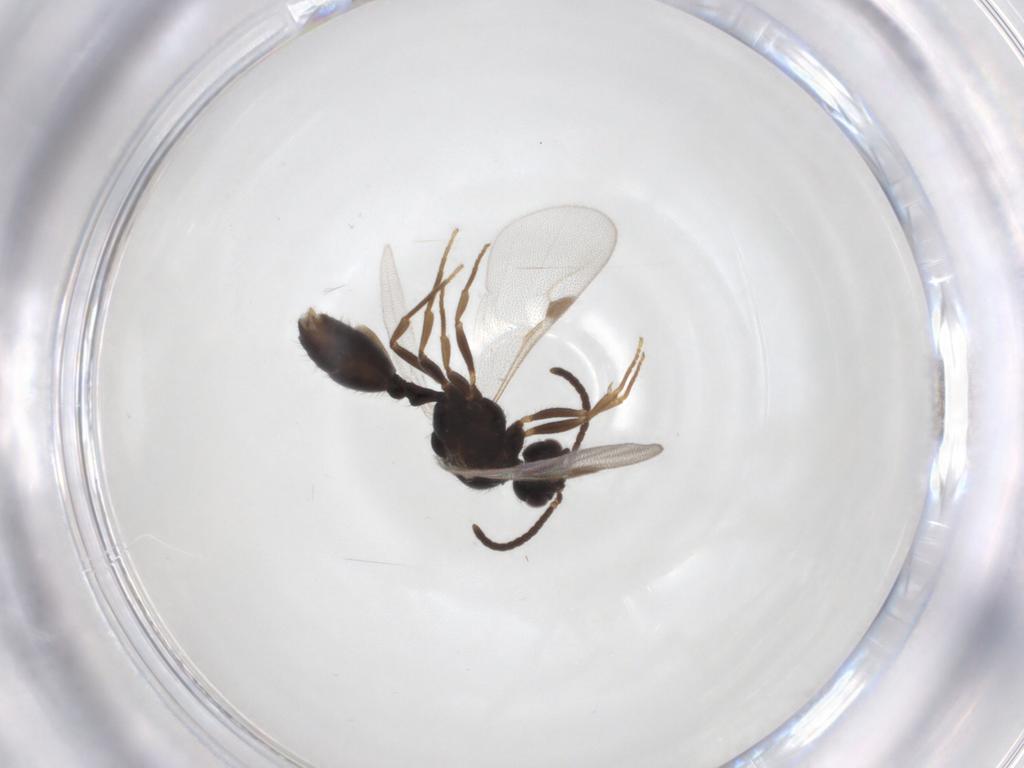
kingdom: Animalia
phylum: Arthropoda
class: Insecta
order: Hymenoptera
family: Formicidae
